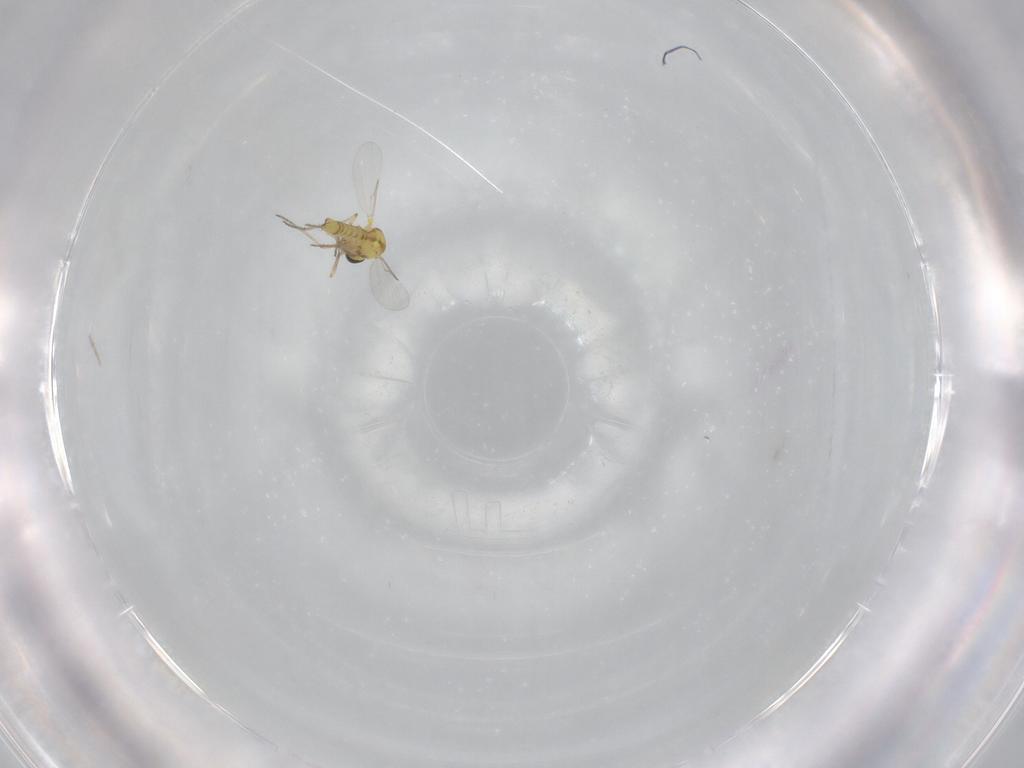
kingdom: Animalia
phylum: Arthropoda
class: Insecta
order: Diptera
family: Ceratopogonidae
